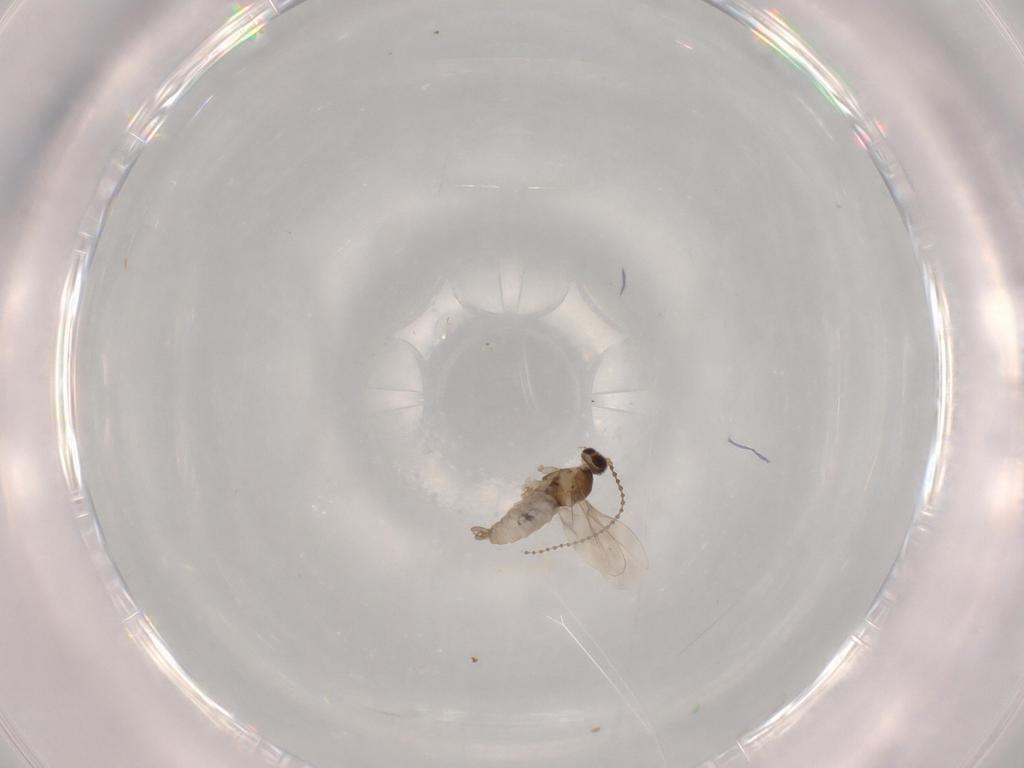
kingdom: Animalia
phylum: Arthropoda
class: Insecta
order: Diptera
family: Cecidomyiidae
